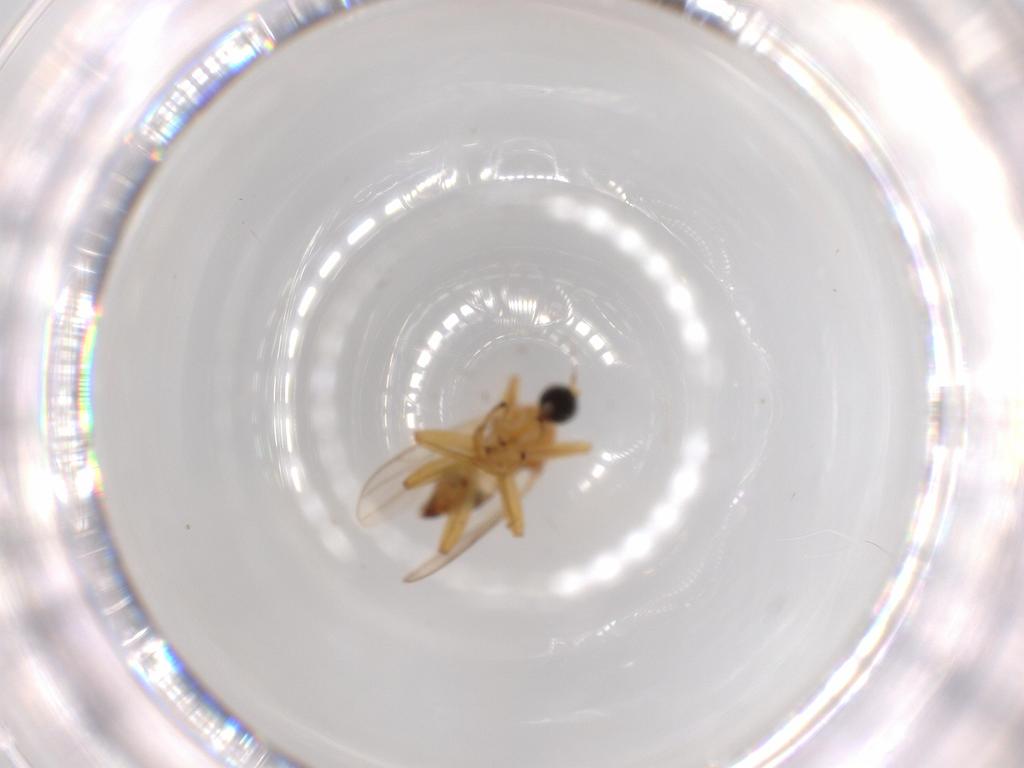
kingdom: Animalia
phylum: Arthropoda
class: Insecta
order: Diptera
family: Hybotidae
